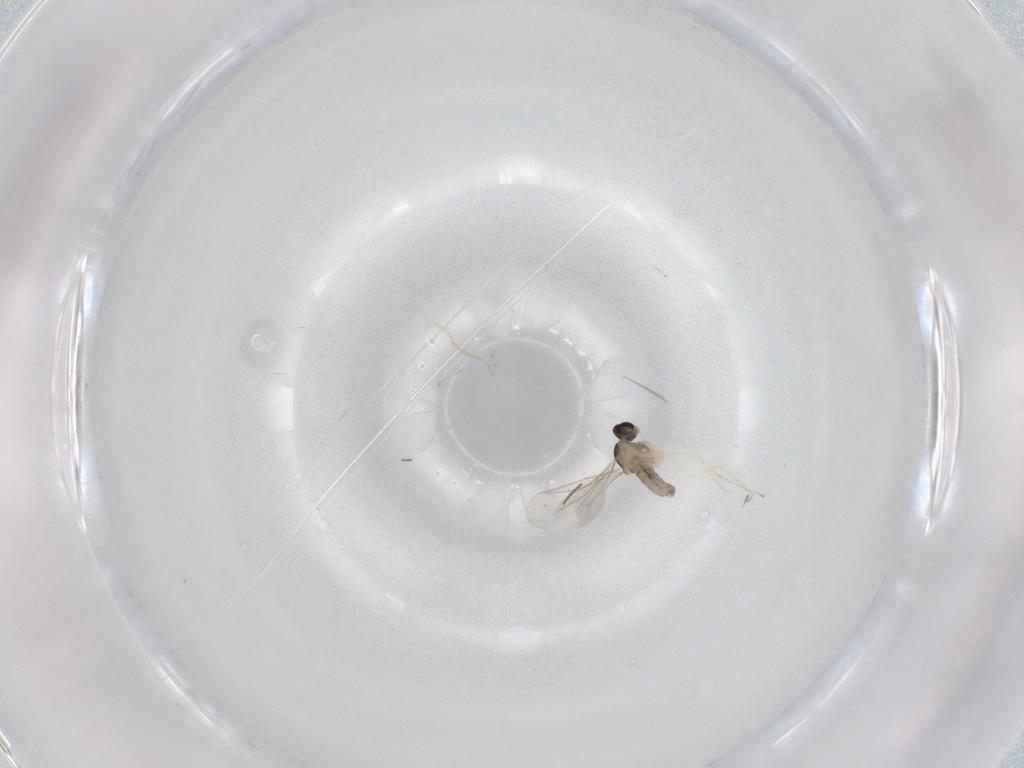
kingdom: Animalia
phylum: Arthropoda
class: Insecta
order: Diptera
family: Cecidomyiidae
